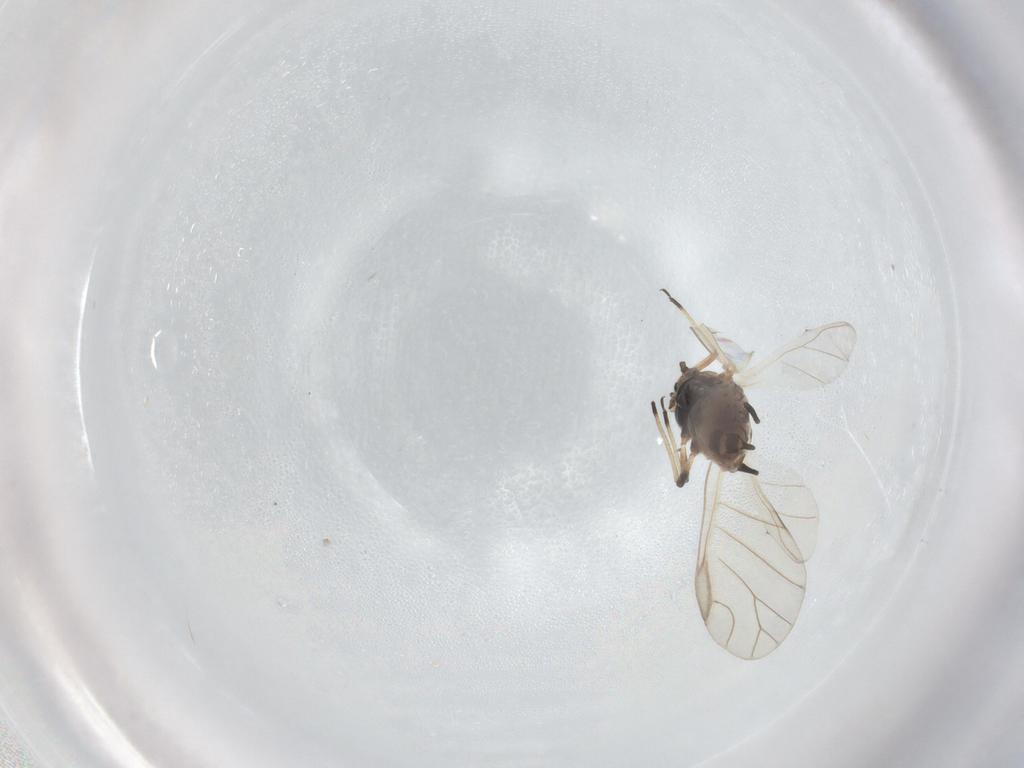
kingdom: Animalia
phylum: Arthropoda
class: Insecta
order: Hemiptera
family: Aphididae
